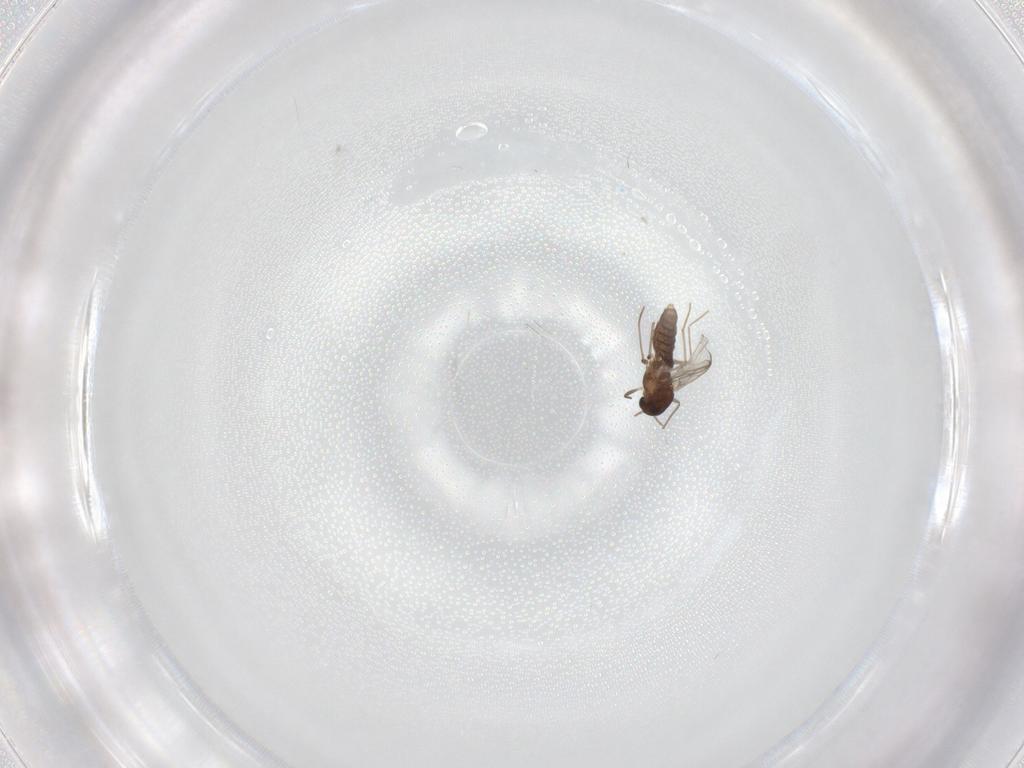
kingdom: Animalia
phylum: Arthropoda
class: Insecta
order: Diptera
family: Chironomidae
